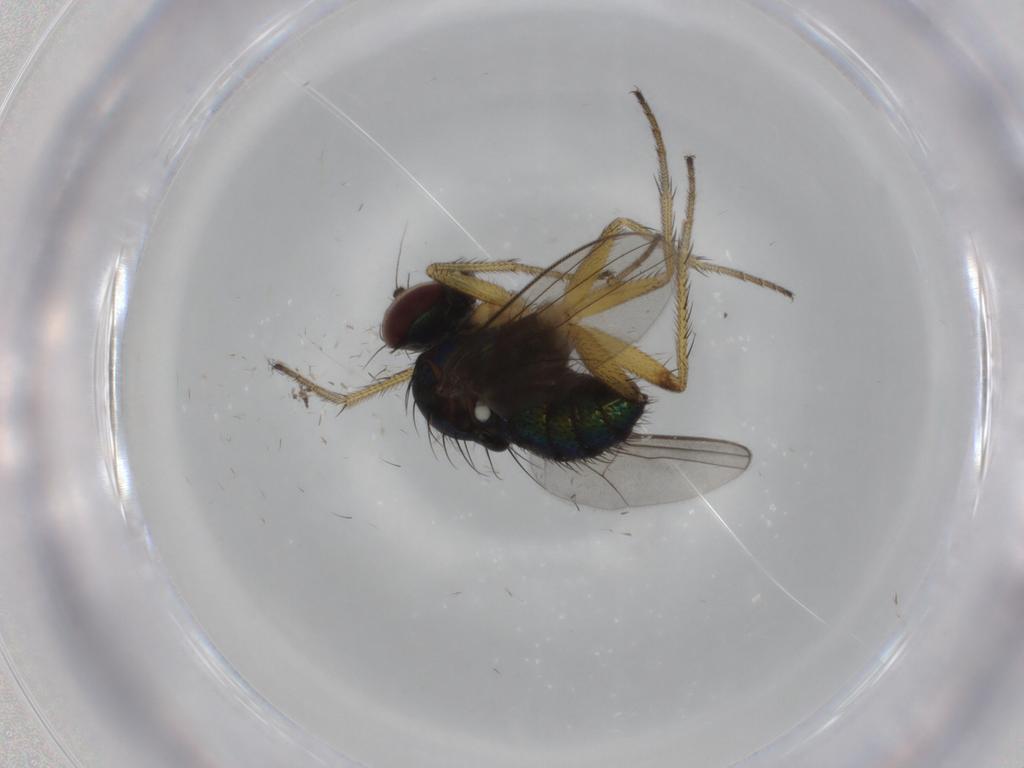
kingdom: Animalia
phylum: Arthropoda
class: Insecta
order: Diptera
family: Dolichopodidae
